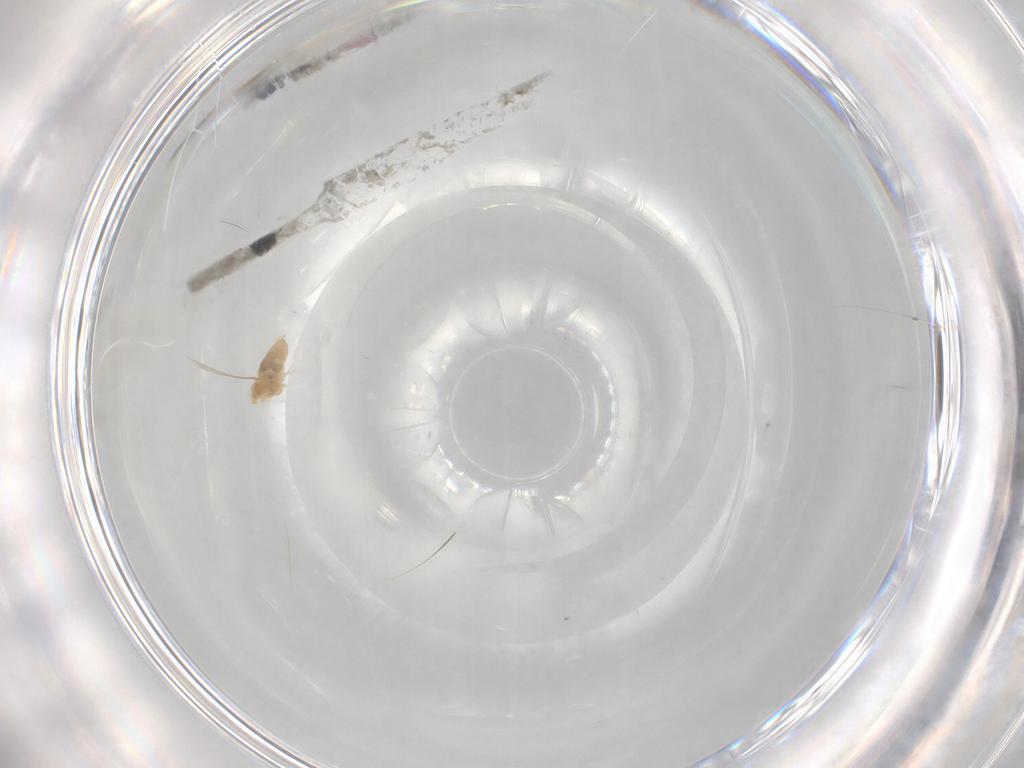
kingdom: Animalia
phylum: Arthropoda
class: Insecta
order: Diptera
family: Cecidomyiidae
